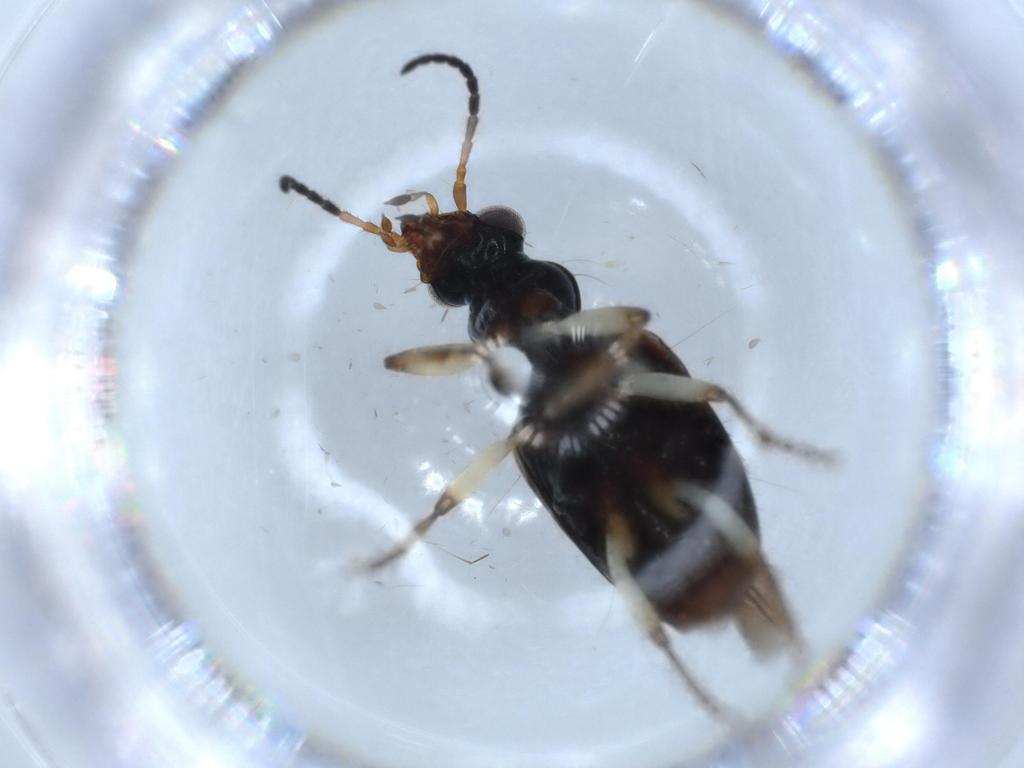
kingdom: Animalia
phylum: Arthropoda
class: Insecta
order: Coleoptera
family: Carabidae
